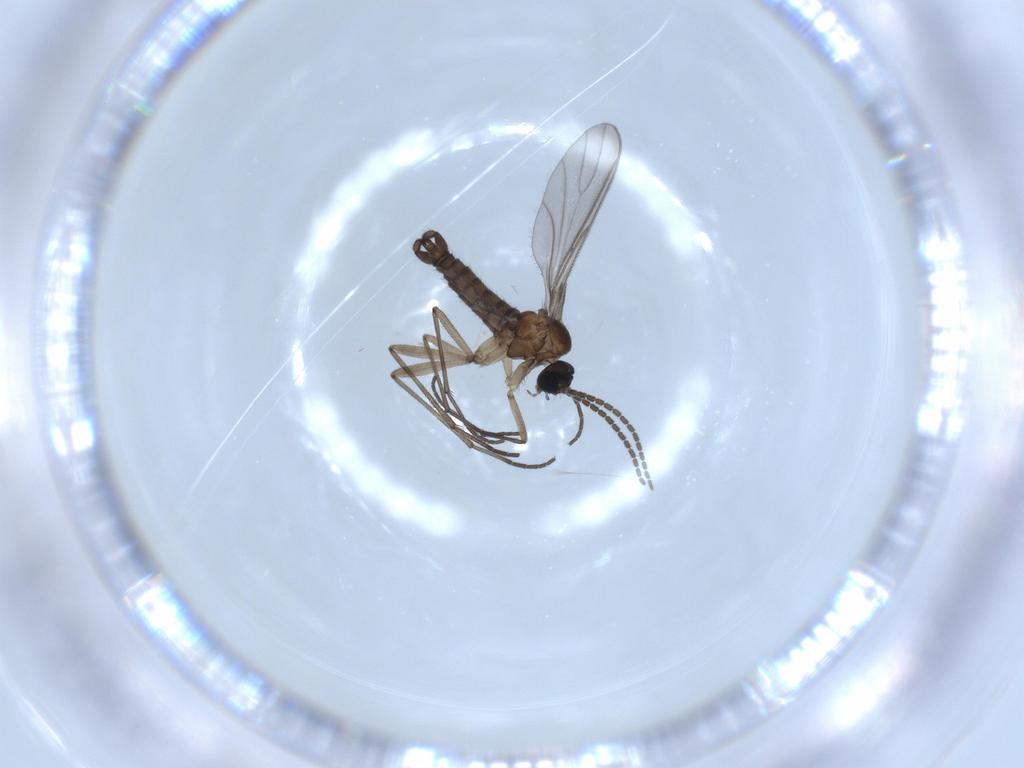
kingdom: Animalia
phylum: Arthropoda
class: Insecta
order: Diptera
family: Sciaridae
